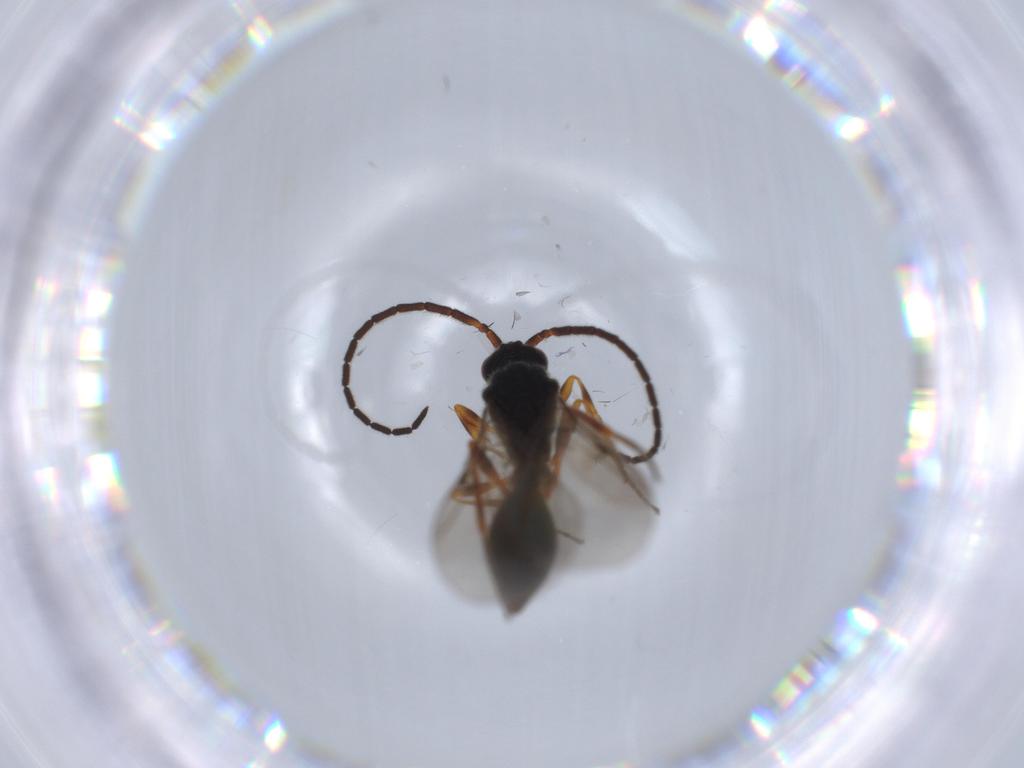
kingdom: Animalia
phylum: Arthropoda
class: Insecta
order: Hymenoptera
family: Diapriidae
